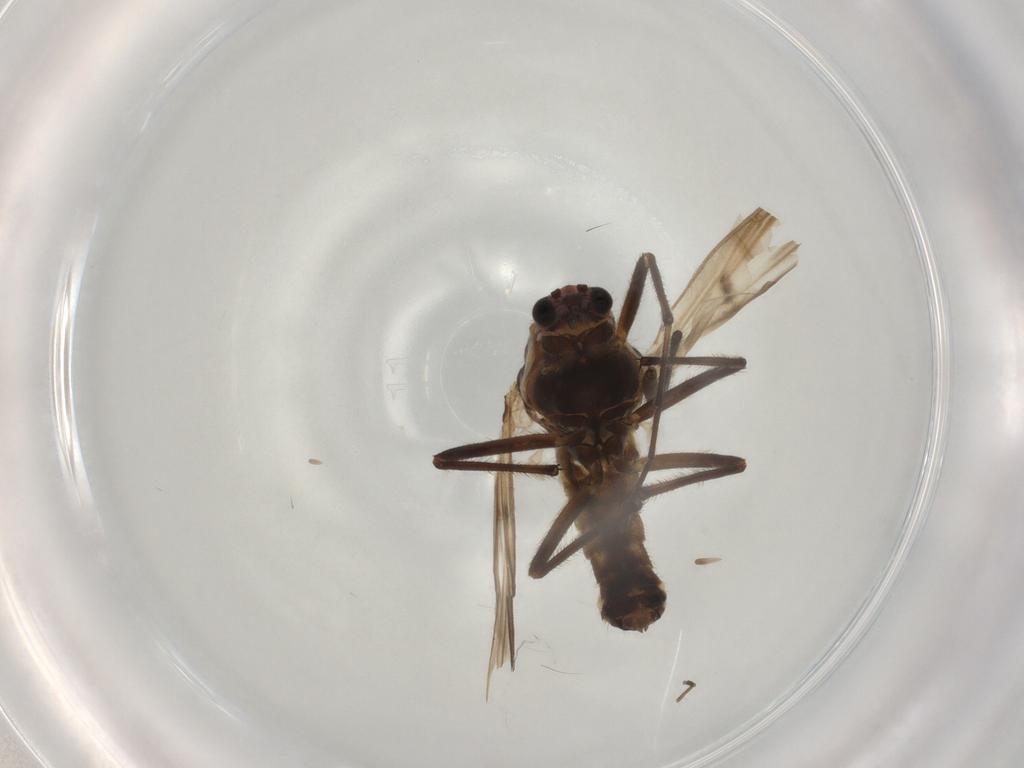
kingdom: Animalia
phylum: Arthropoda
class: Insecta
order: Diptera
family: Chironomidae
